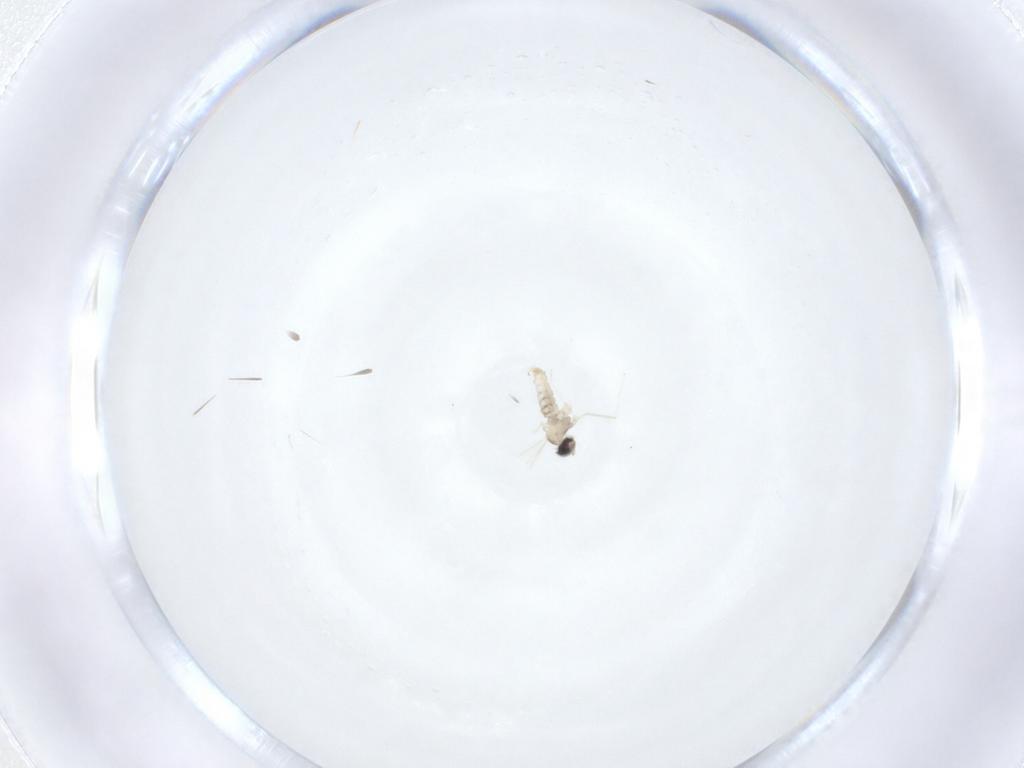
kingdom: Animalia
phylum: Arthropoda
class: Insecta
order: Diptera
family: Cecidomyiidae
